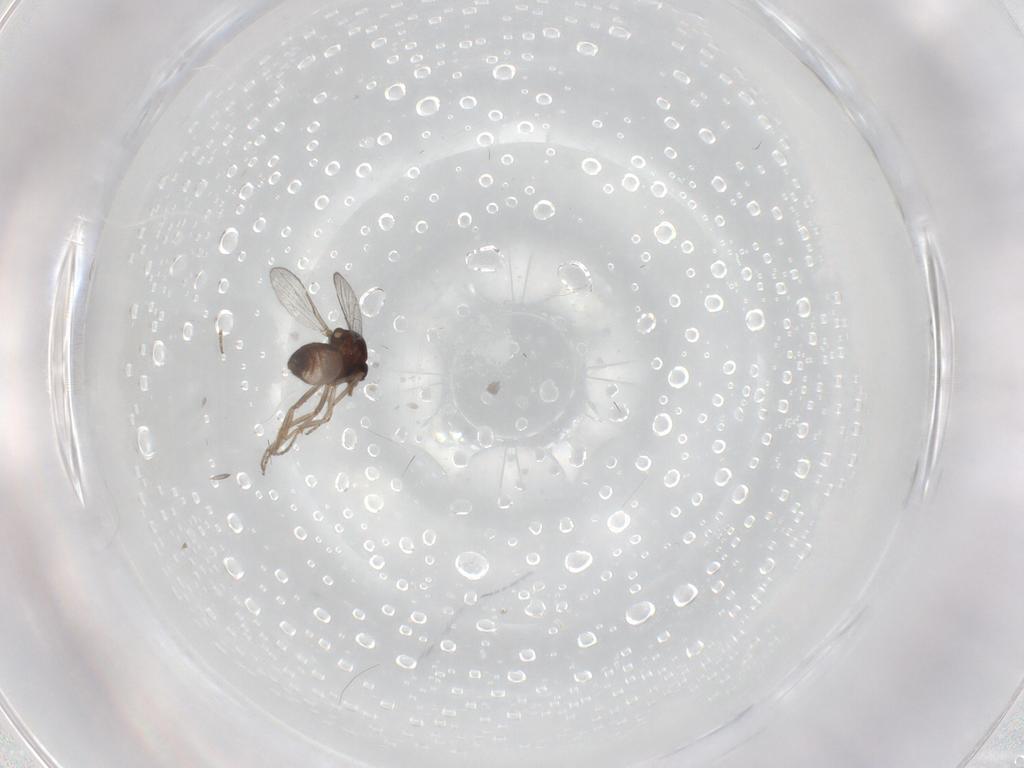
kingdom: Animalia
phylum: Arthropoda
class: Insecta
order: Diptera
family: Ceratopogonidae
